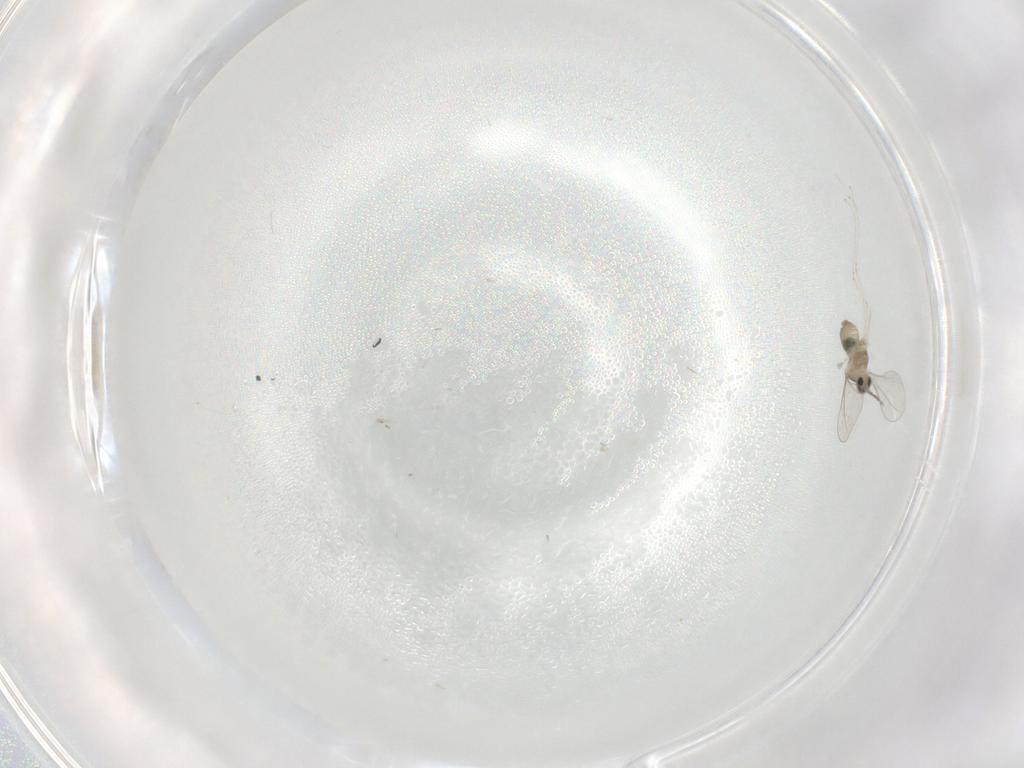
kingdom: Animalia
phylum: Arthropoda
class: Insecta
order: Diptera
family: Cecidomyiidae
